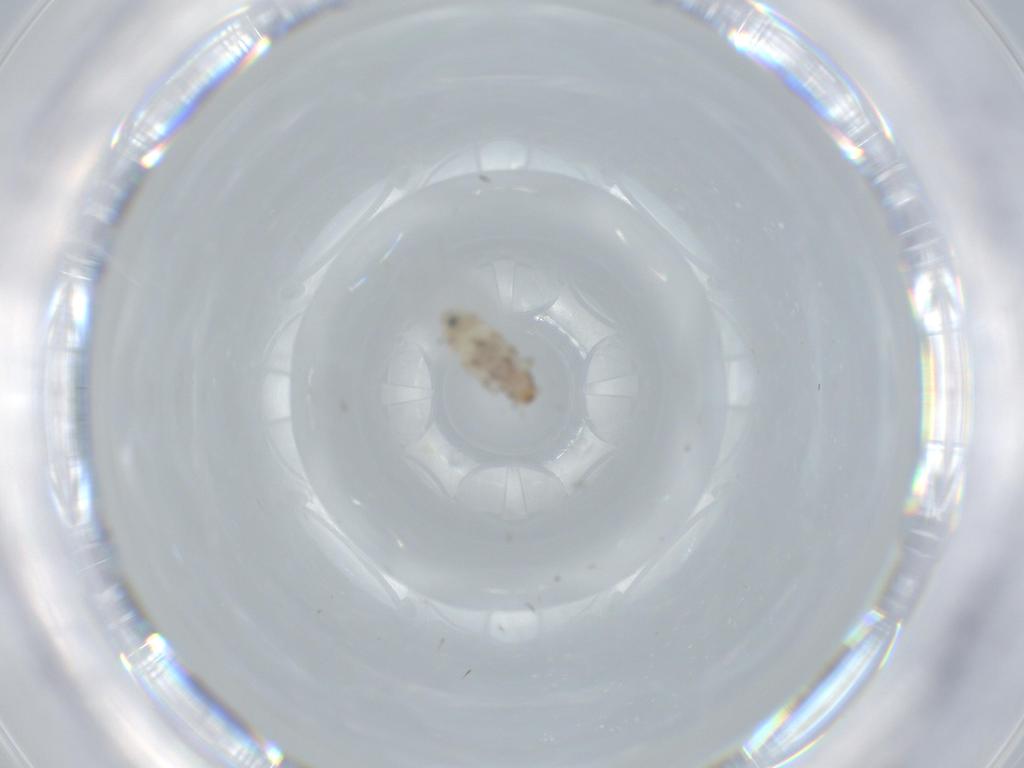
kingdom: Animalia
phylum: Arthropoda
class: Insecta
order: Psocodea
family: Liposcelididae
